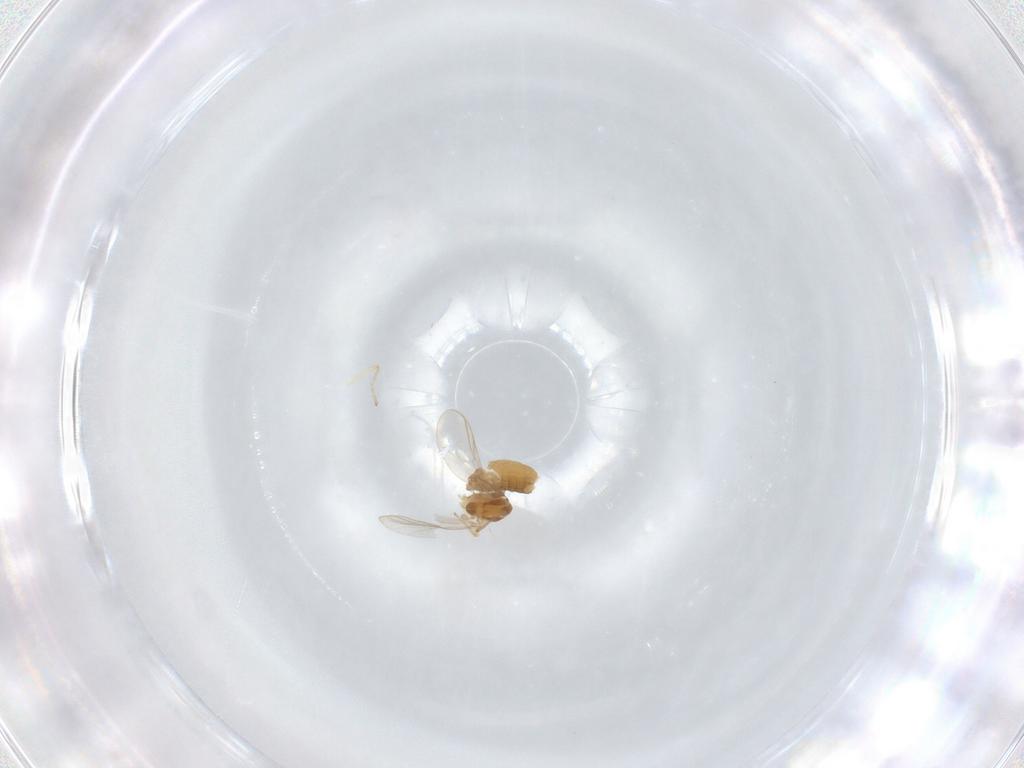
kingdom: Animalia
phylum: Arthropoda
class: Insecta
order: Diptera
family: Chironomidae
